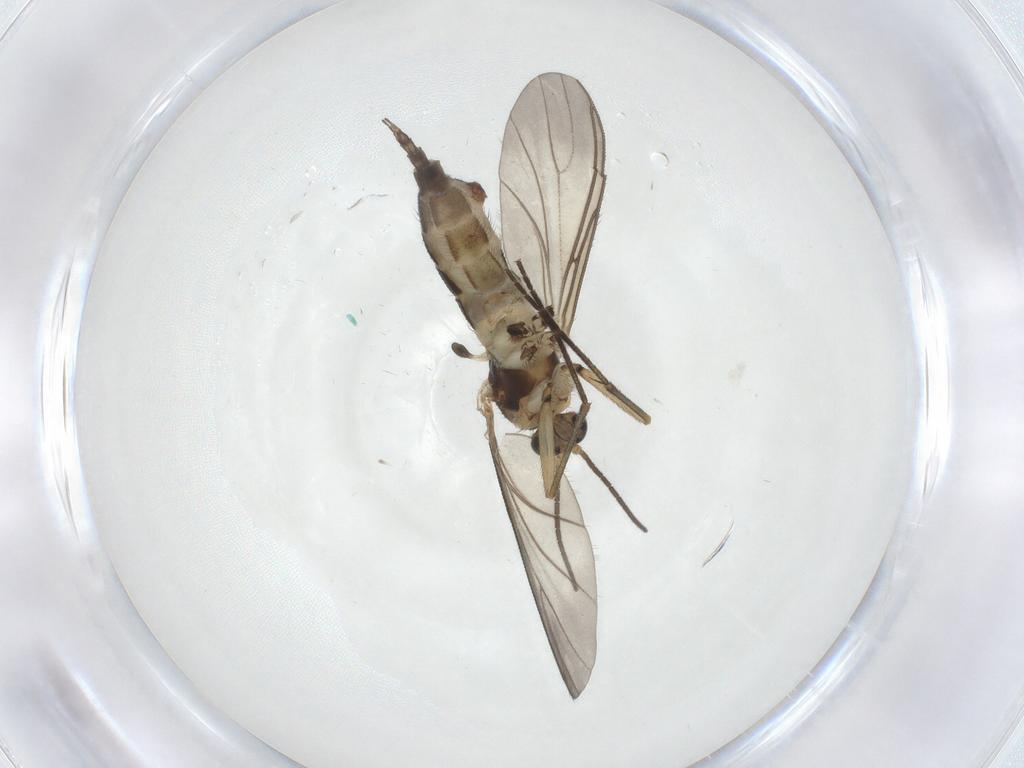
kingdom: Animalia
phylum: Arthropoda
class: Insecta
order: Diptera
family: Sciaridae
